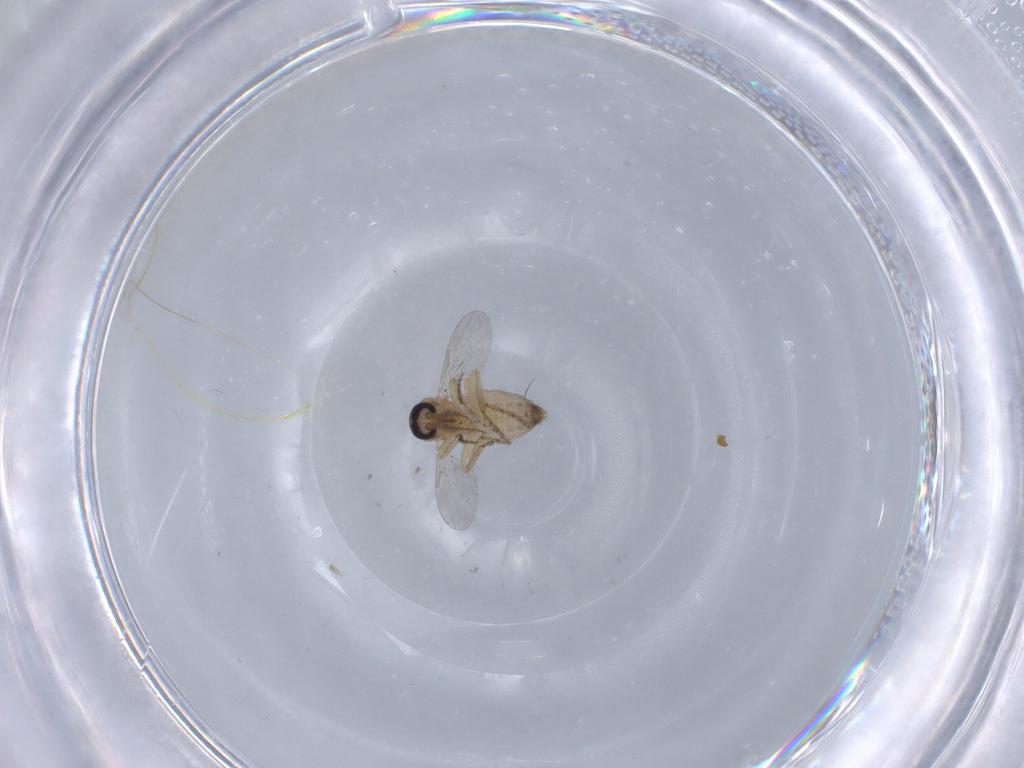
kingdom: Animalia
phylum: Arthropoda
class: Insecta
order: Diptera
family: Ceratopogonidae
